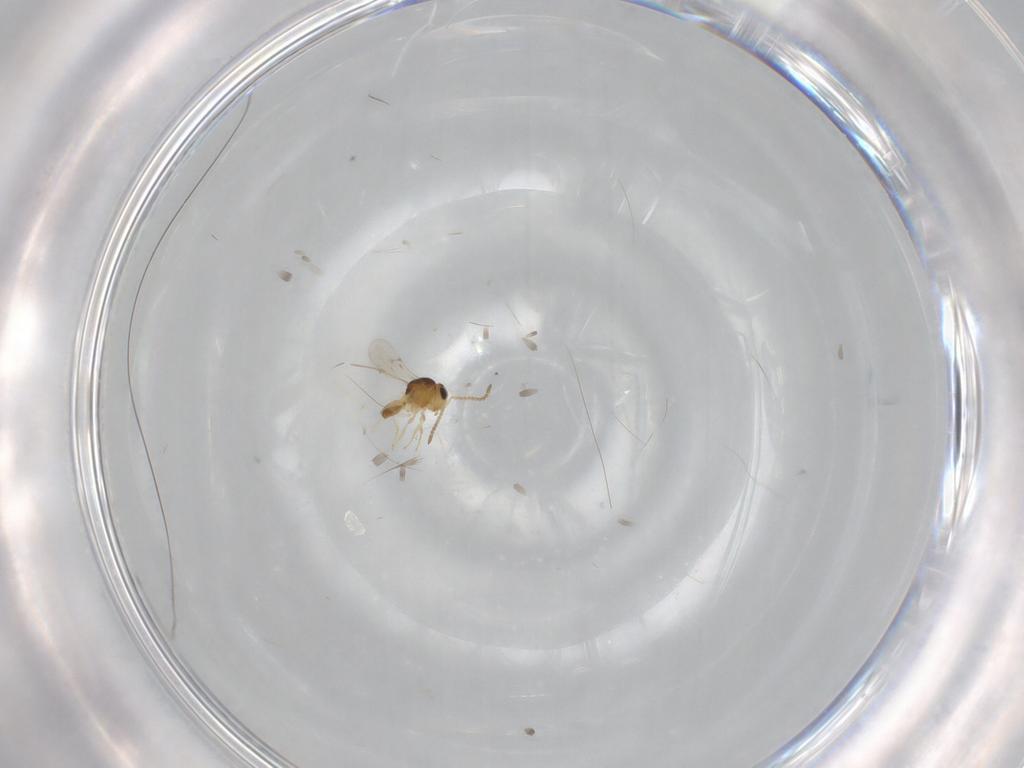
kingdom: Animalia
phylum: Arthropoda
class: Insecta
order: Hymenoptera
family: Scelionidae
